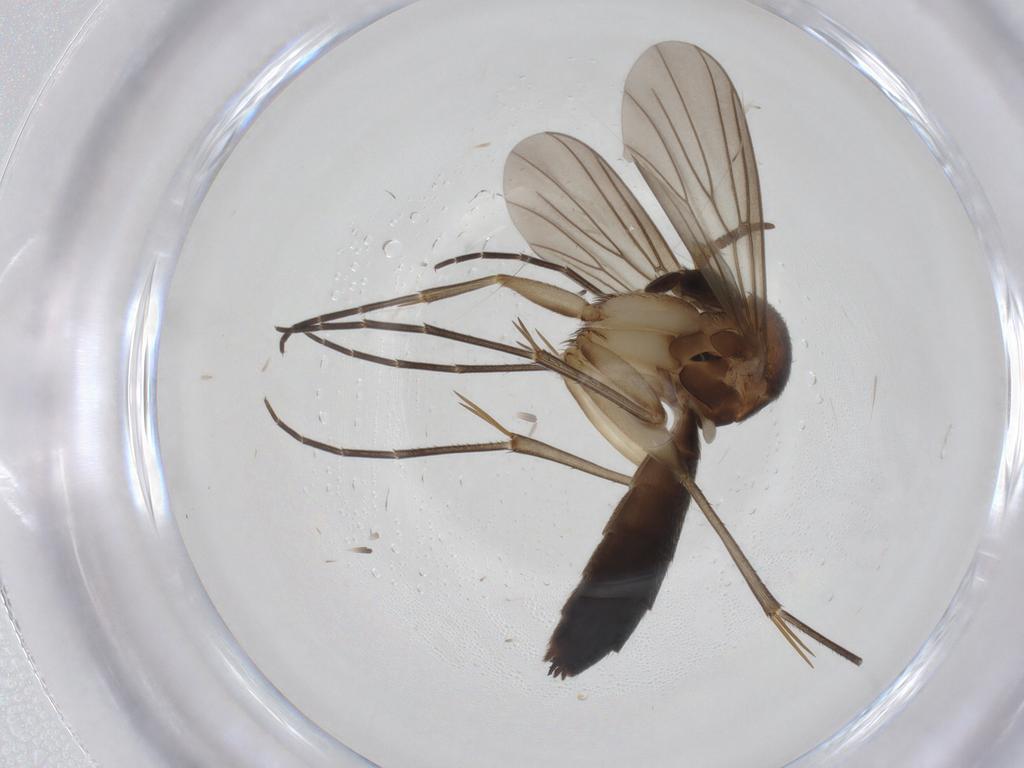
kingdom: Animalia
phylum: Arthropoda
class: Insecta
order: Diptera
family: Mycetophilidae
